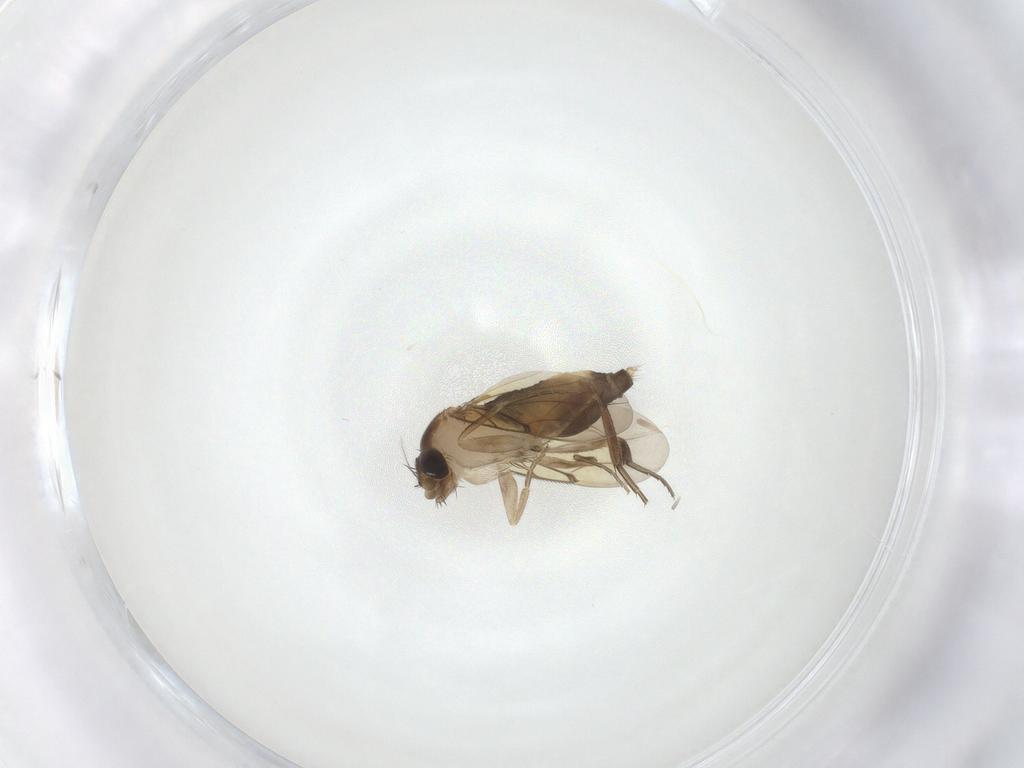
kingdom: Animalia
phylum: Arthropoda
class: Insecta
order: Diptera
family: Phoridae
